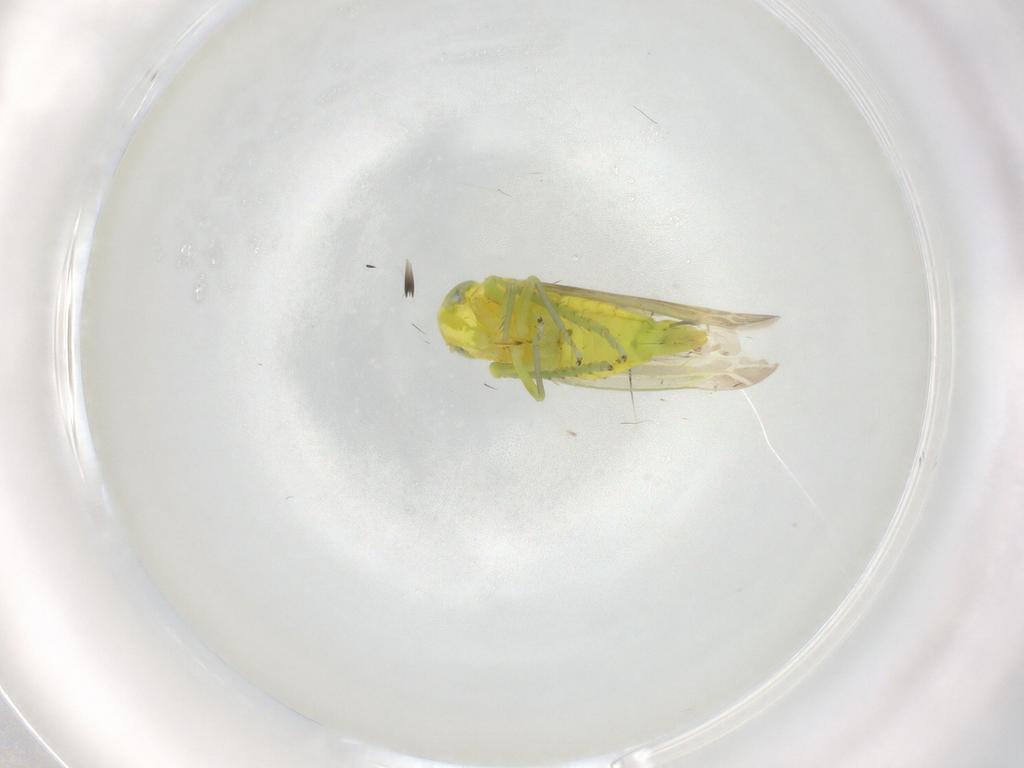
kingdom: Animalia
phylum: Arthropoda
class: Insecta
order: Hemiptera
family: Cicadellidae
